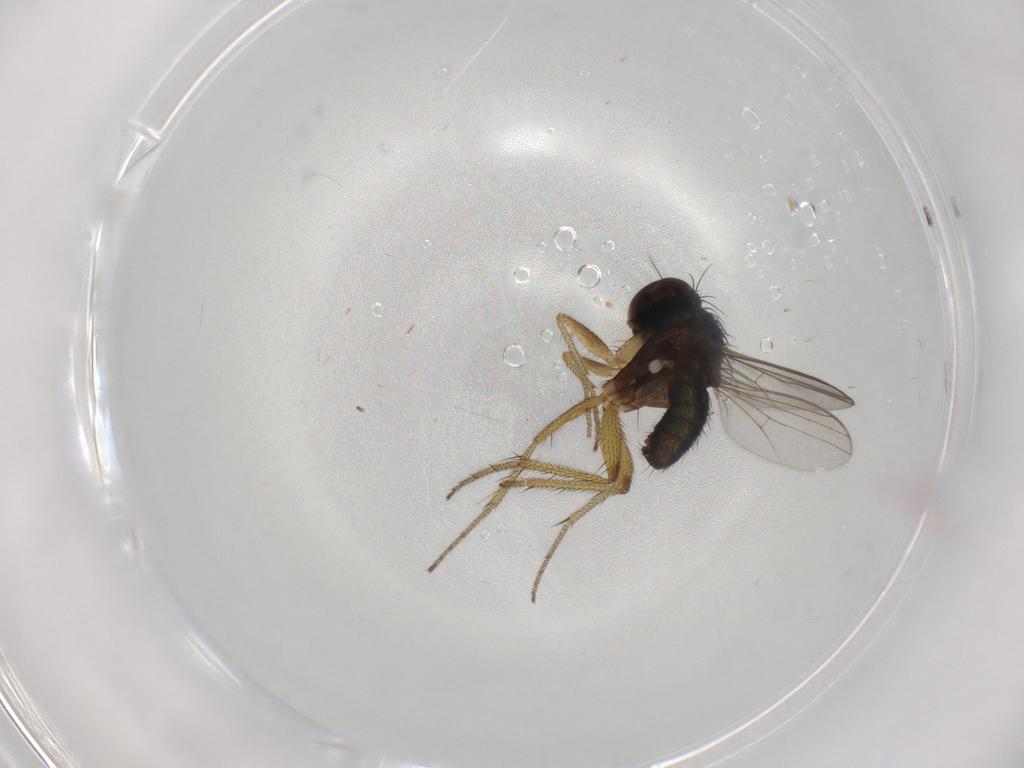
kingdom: Animalia
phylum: Arthropoda
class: Insecta
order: Diptera
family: Dolichopodidae
